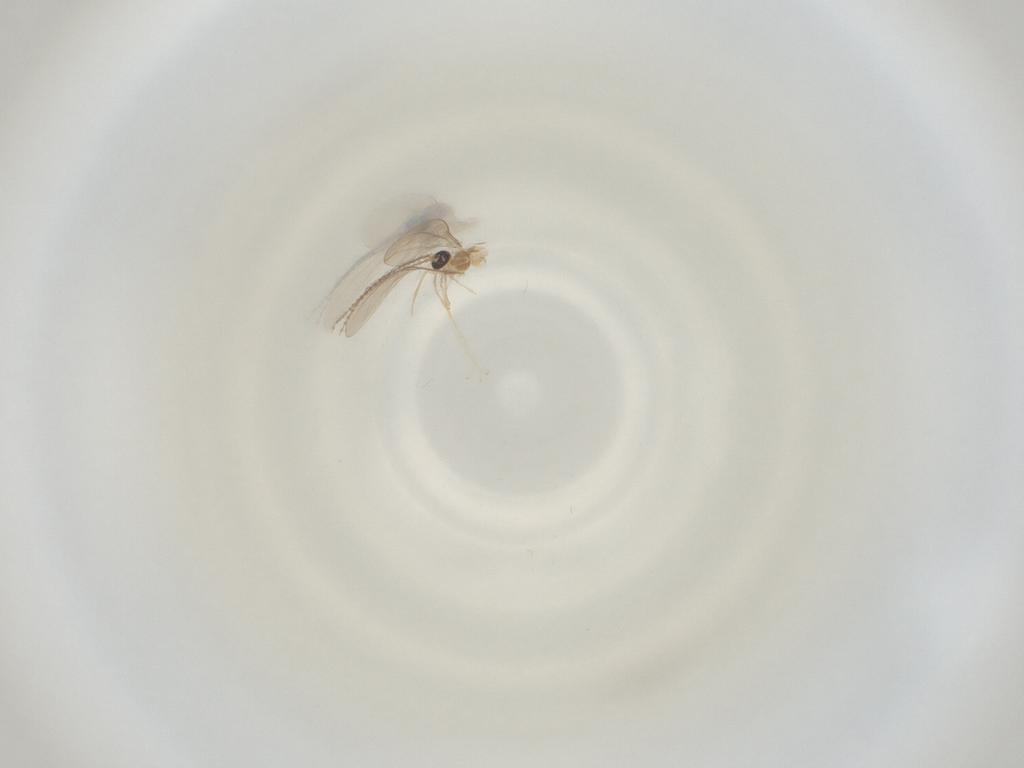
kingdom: Animalia
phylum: Arthropoda
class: Insecta
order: Diptera
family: Cecidomyiidae
